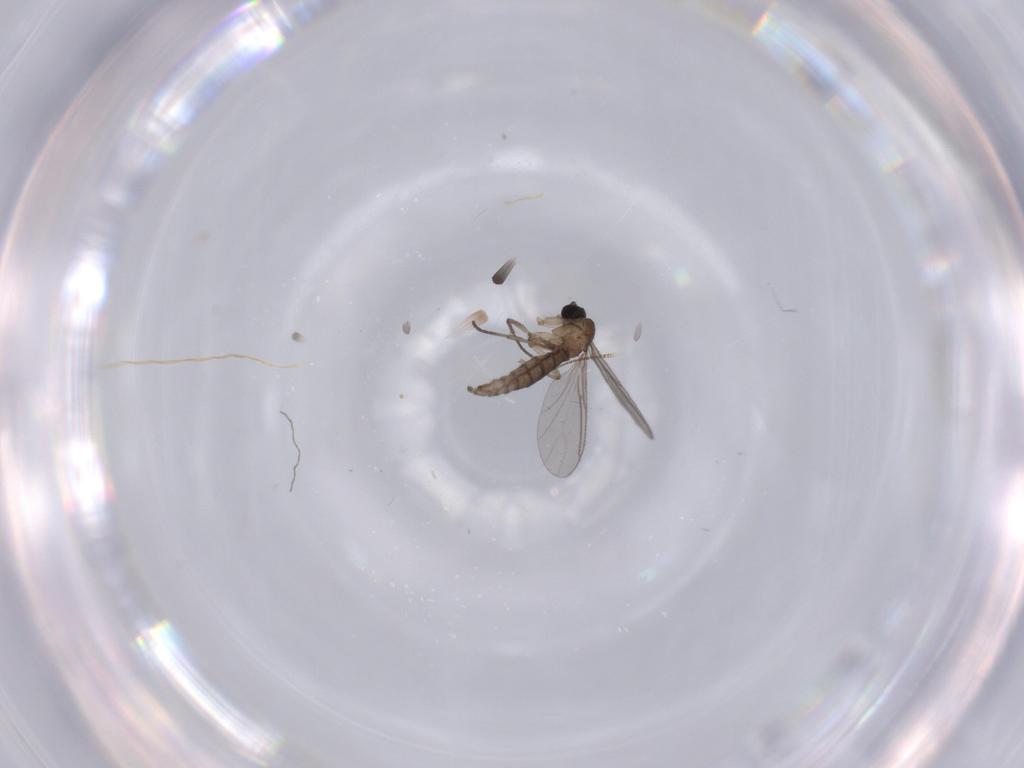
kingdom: Animalia
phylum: Arthropoda
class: Insecta
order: Diptera
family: Sciaridae
